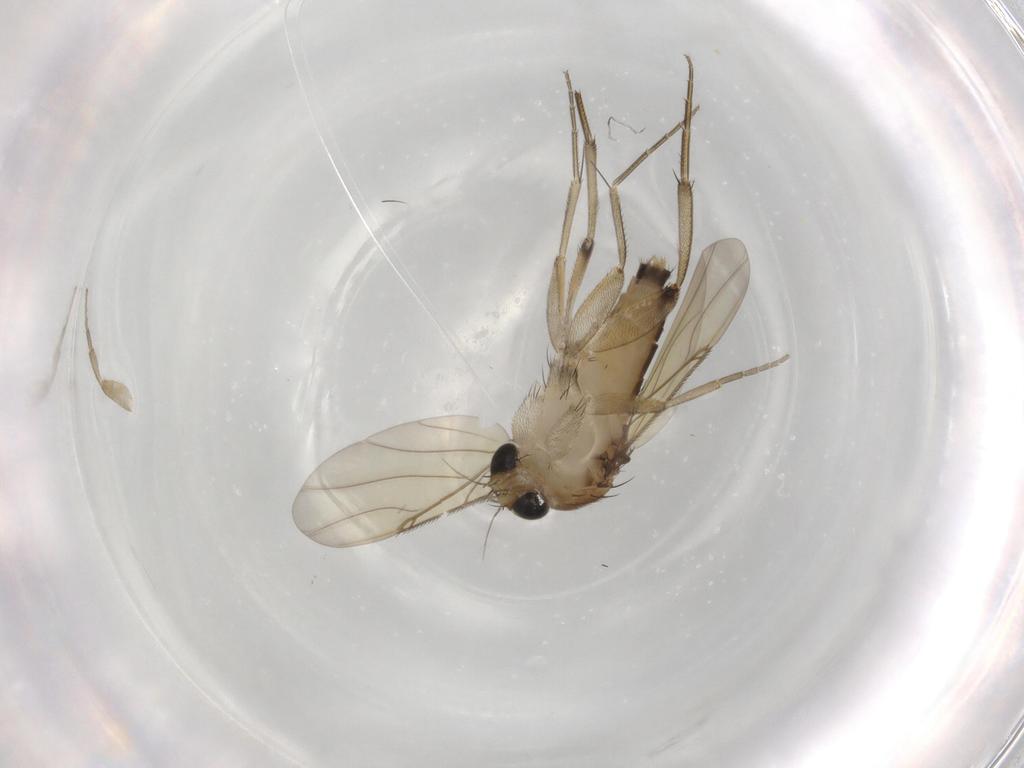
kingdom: Animalia
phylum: Arthropoda
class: Insecta
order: Diptera
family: Phoridae
